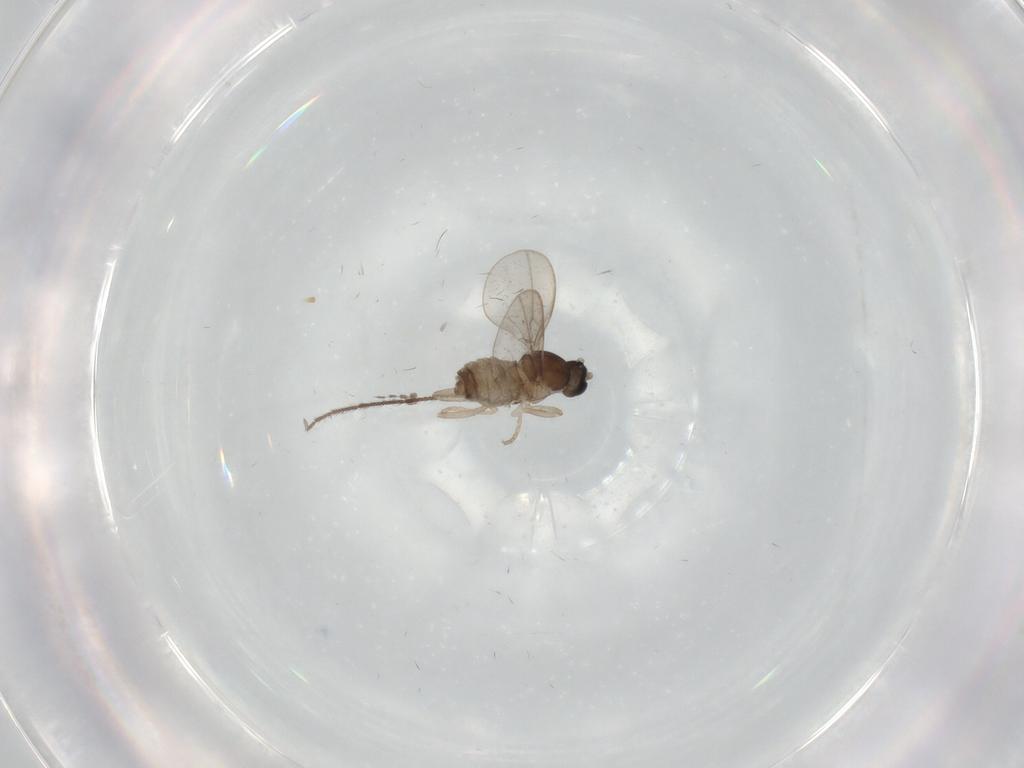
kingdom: Animalia
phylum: Arthropoda
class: Insecta
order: Diptera
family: Cecidomyiidae
